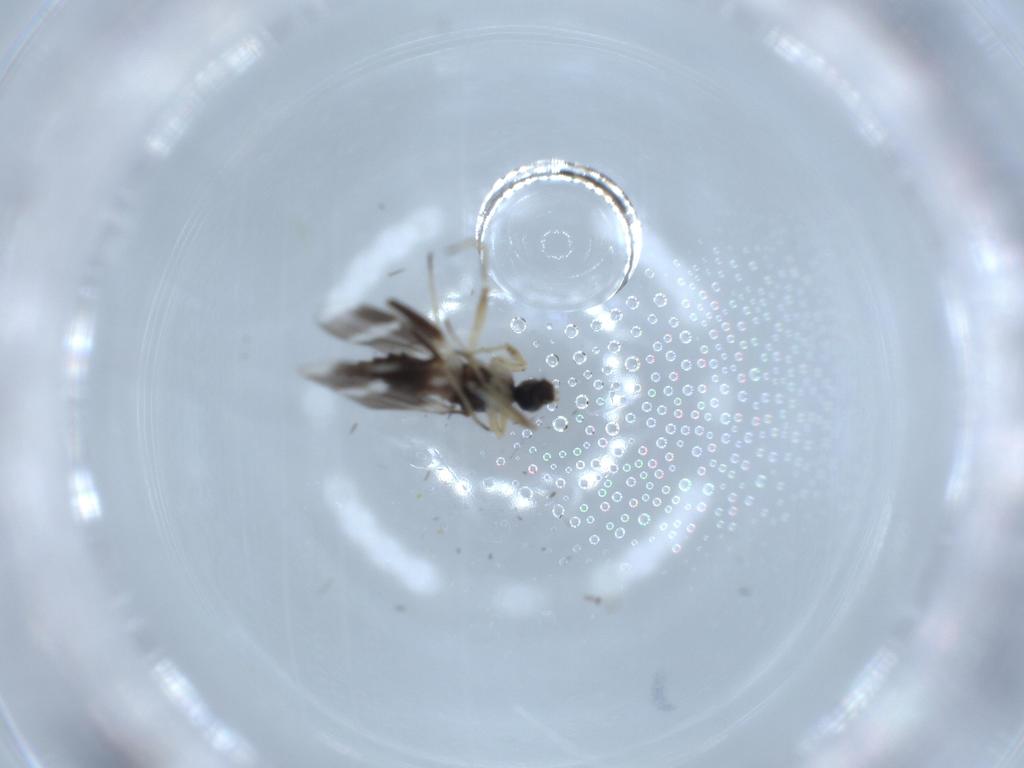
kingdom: Animalia
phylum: Arthropoda
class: Insecta
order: Diptera
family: Hybotidae
